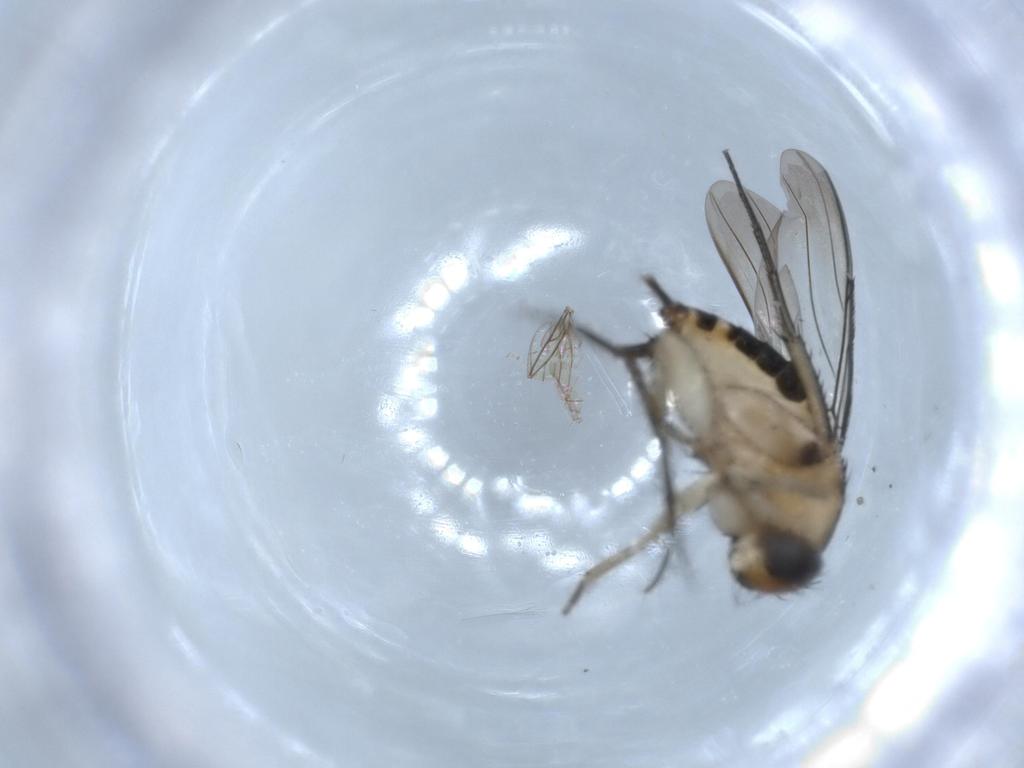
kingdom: Animalia
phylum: Arthropoda
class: Insecta
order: Diptera
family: Phoridae
